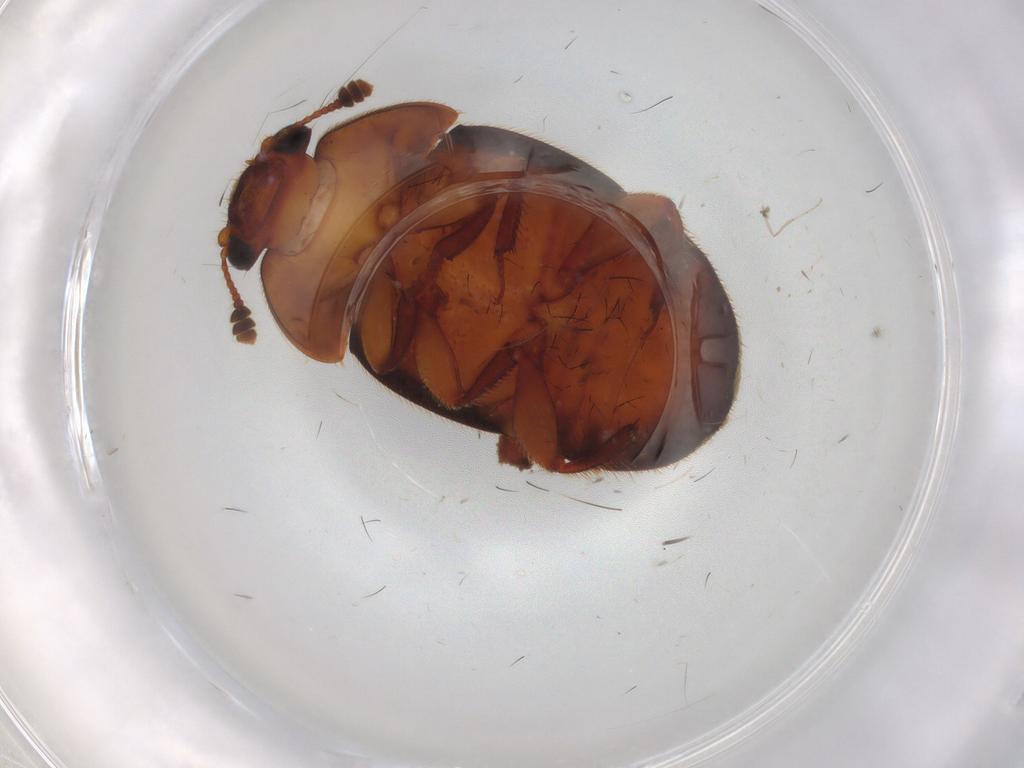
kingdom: Animalia
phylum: Arthropoda
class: Insecta
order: Coleoptera
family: Nitidulidae
